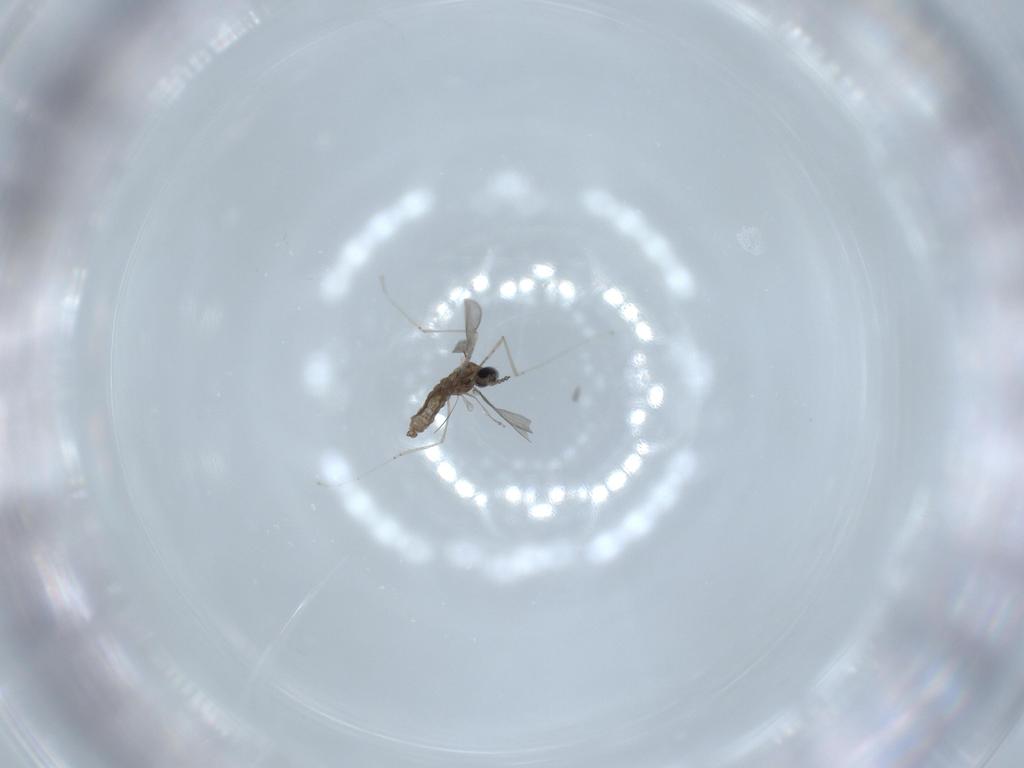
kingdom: Animalia
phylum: Arthropoda
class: Insecta
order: Diptera
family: Cecidomyiidae
